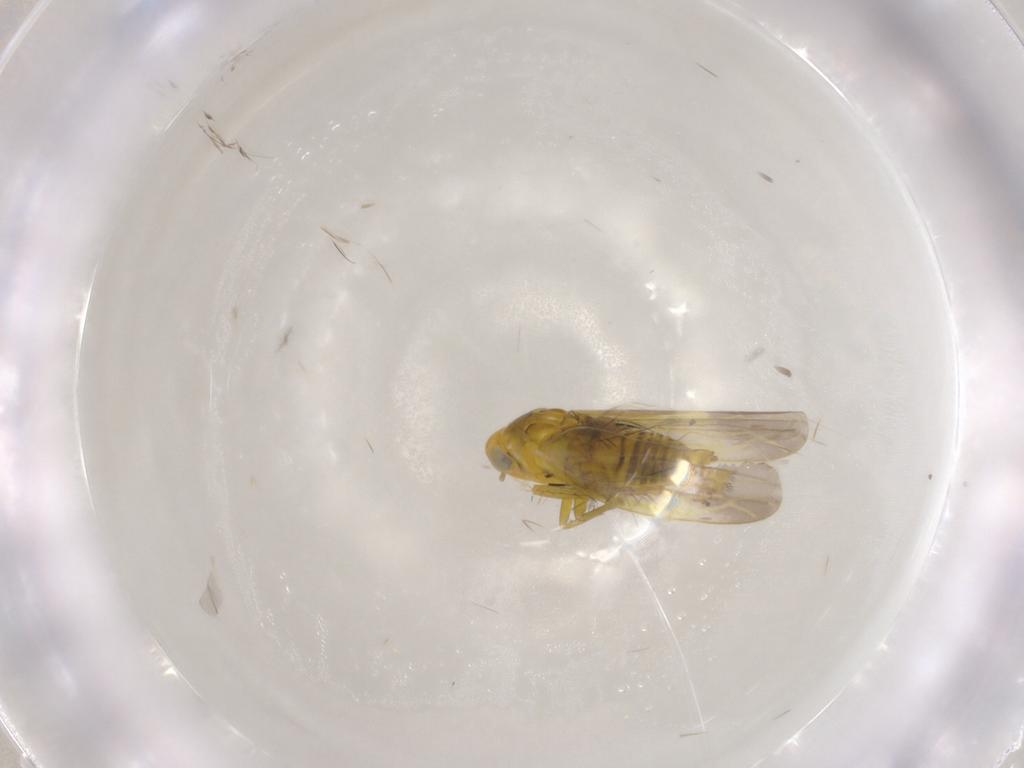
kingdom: Animalia
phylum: Arthropoda
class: Insecta
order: Hemiptera
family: Cicadellidae
